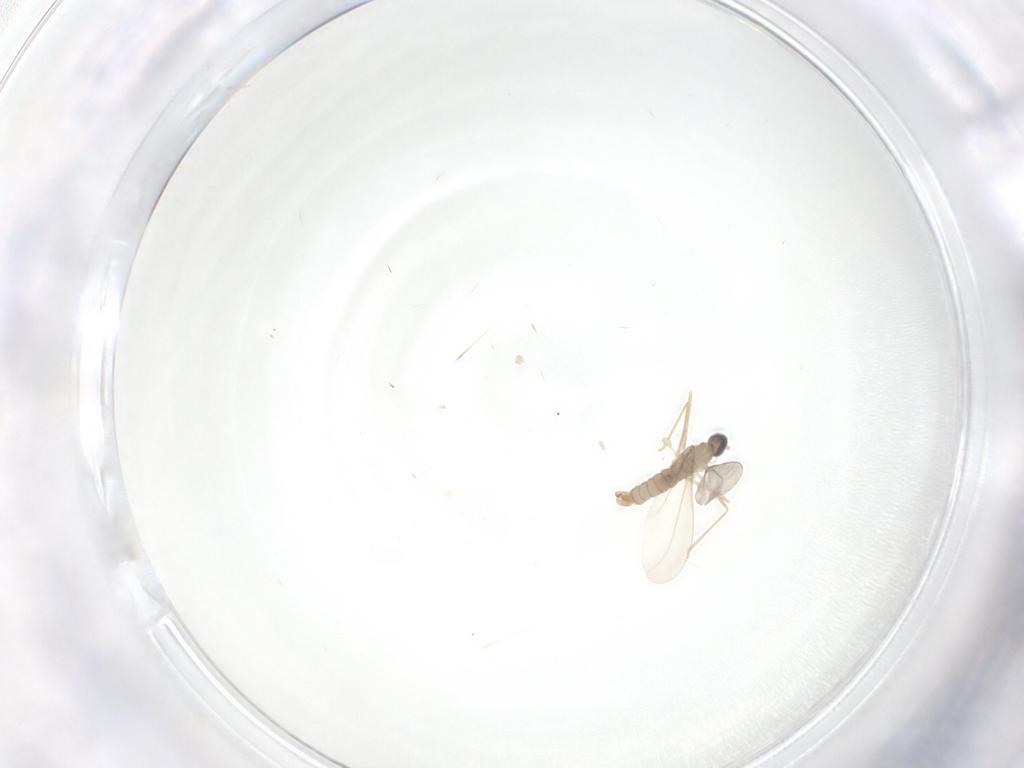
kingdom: Animalia
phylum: Arthropoda
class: Insecta
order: Diptera
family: Cecidomyiidae
